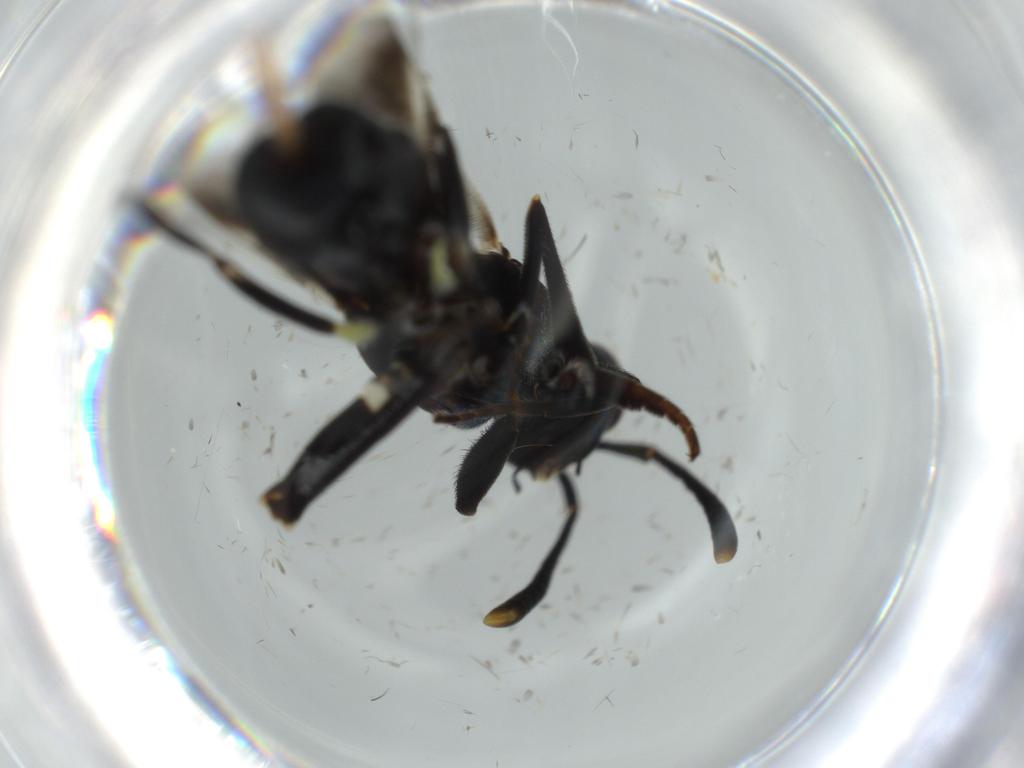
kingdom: Animalia
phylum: Arthropoda
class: Insecta
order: Hymenoptera
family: Eupelmidae
